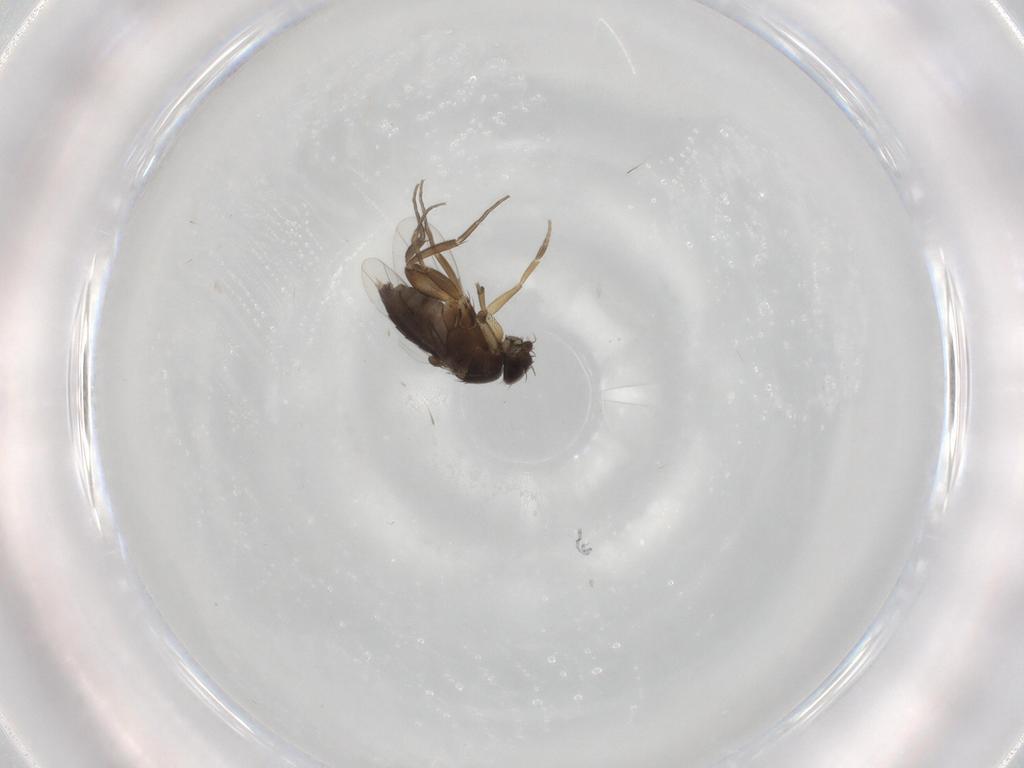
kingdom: Animalia
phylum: Arthropoda
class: Insecta
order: Diptera
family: Phoridae
